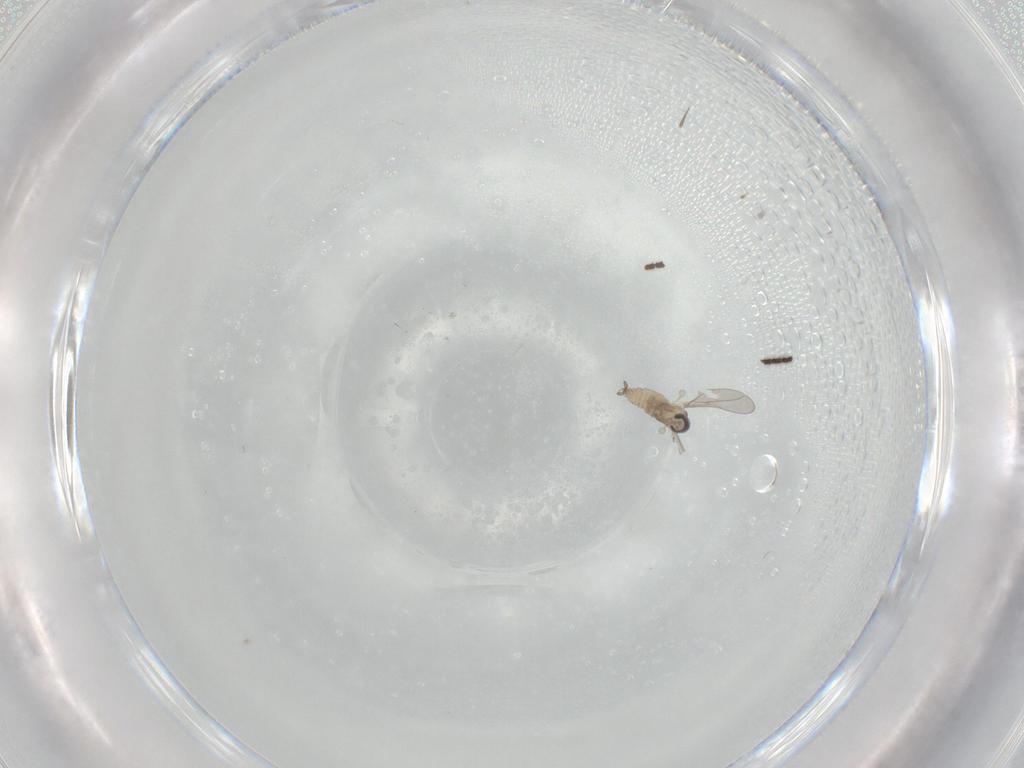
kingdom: Animalia
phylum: Arthropoda
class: Insecta
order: Diptera
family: Sciaridae
